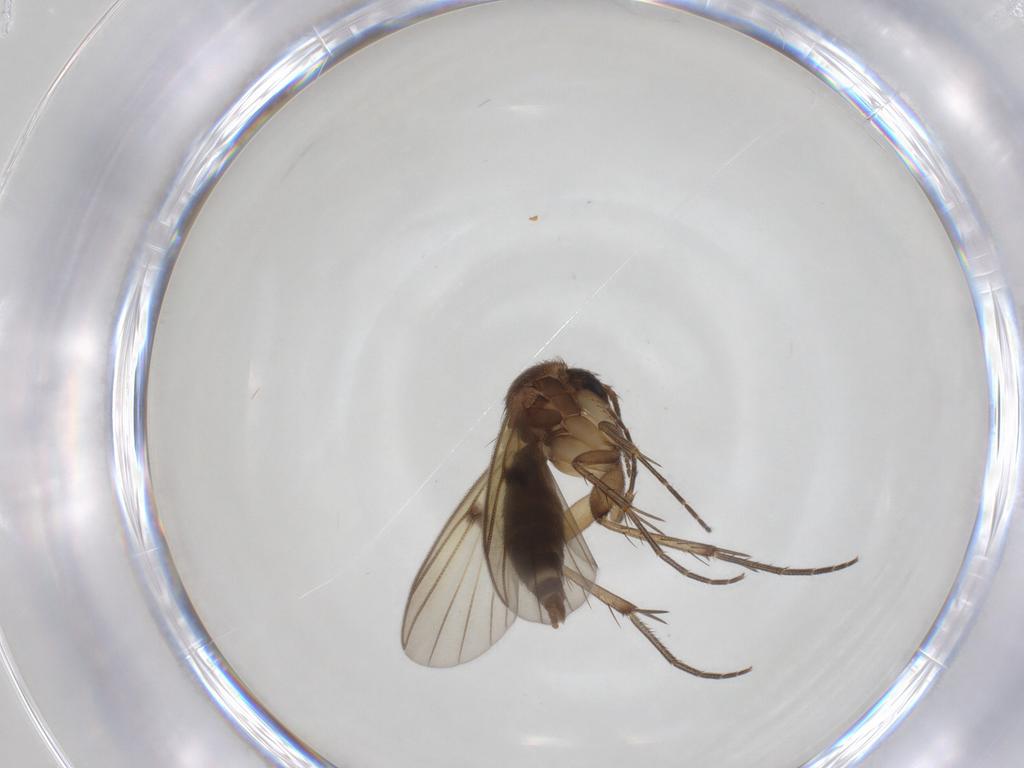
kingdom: Animalia
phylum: Arthropoda
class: Insecta
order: Diptera
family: Mycetophilidae
